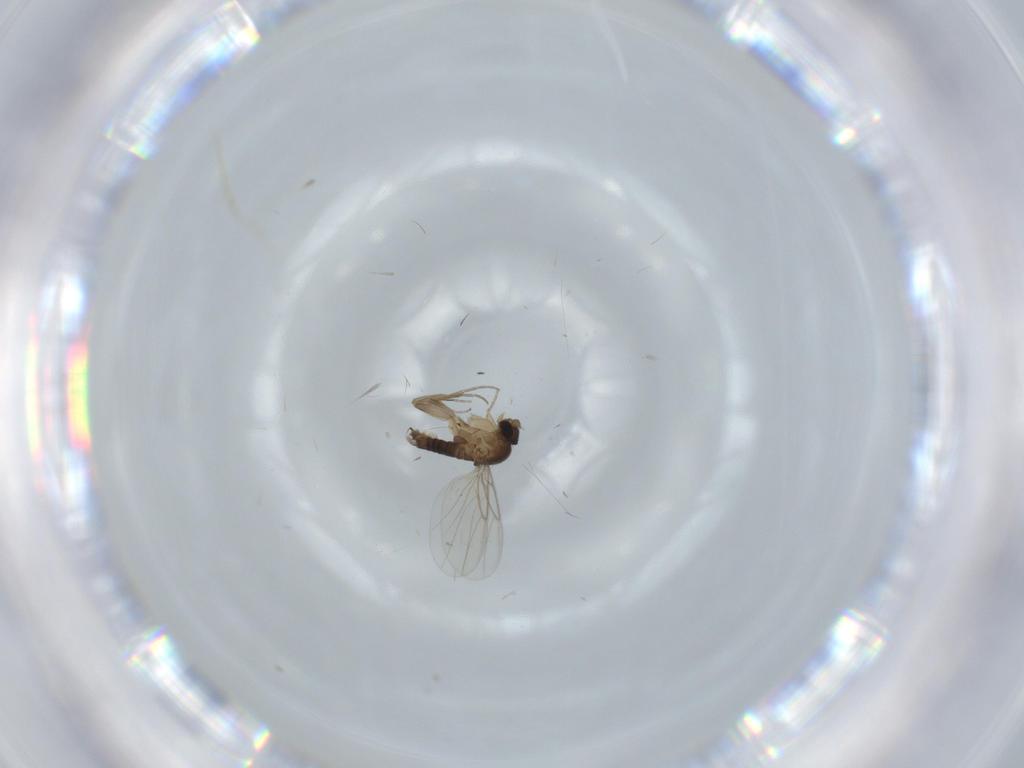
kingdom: Animalia
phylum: Arthropoda
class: Insecta
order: Diptera
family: Phoridae
